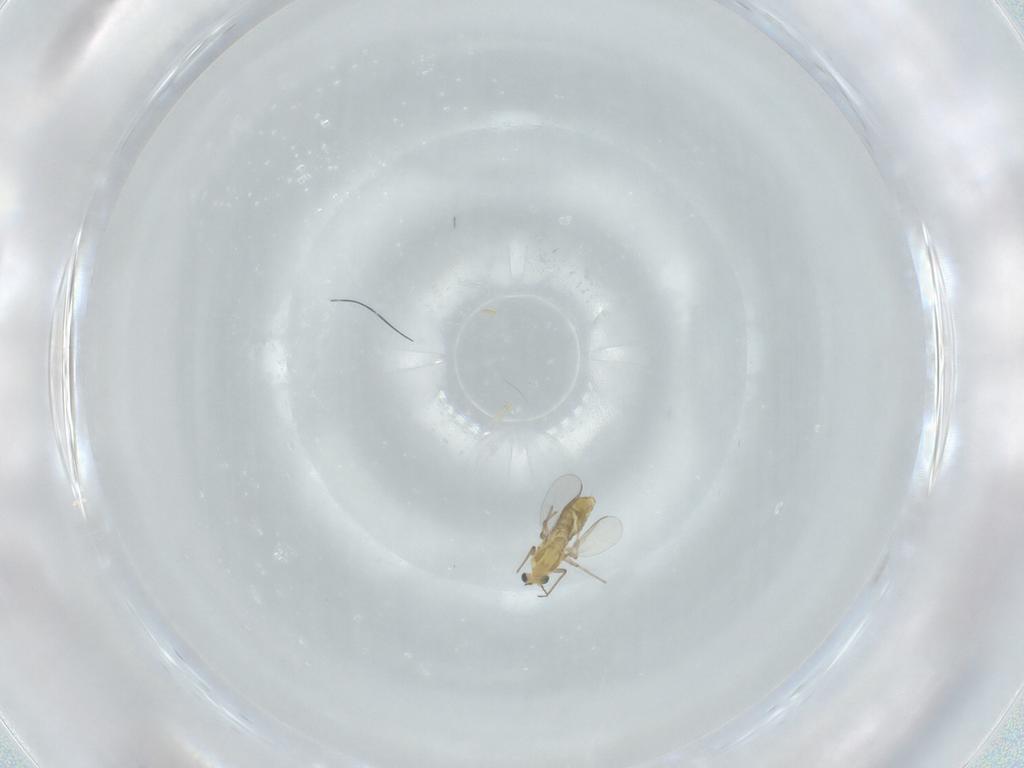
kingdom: Animalia
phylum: Arthropoda
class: Insecta
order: Diptera
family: Chironomidae
